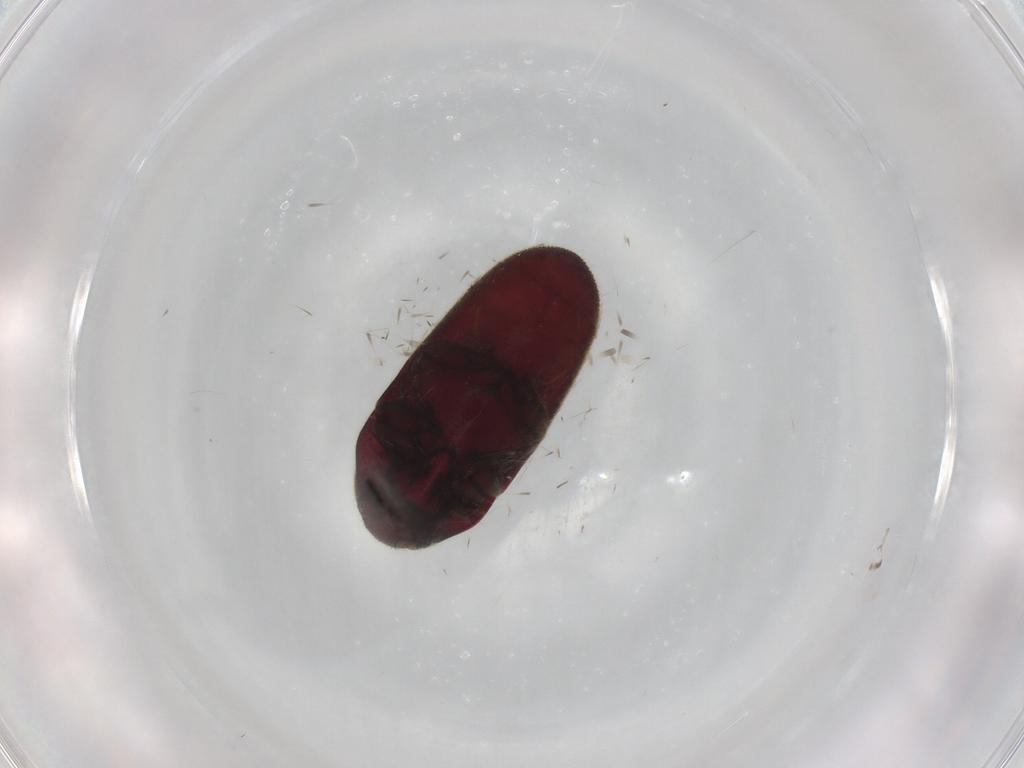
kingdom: Animalia
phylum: Arthropoda
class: Insecta
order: Coleoptera
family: Throscidae
